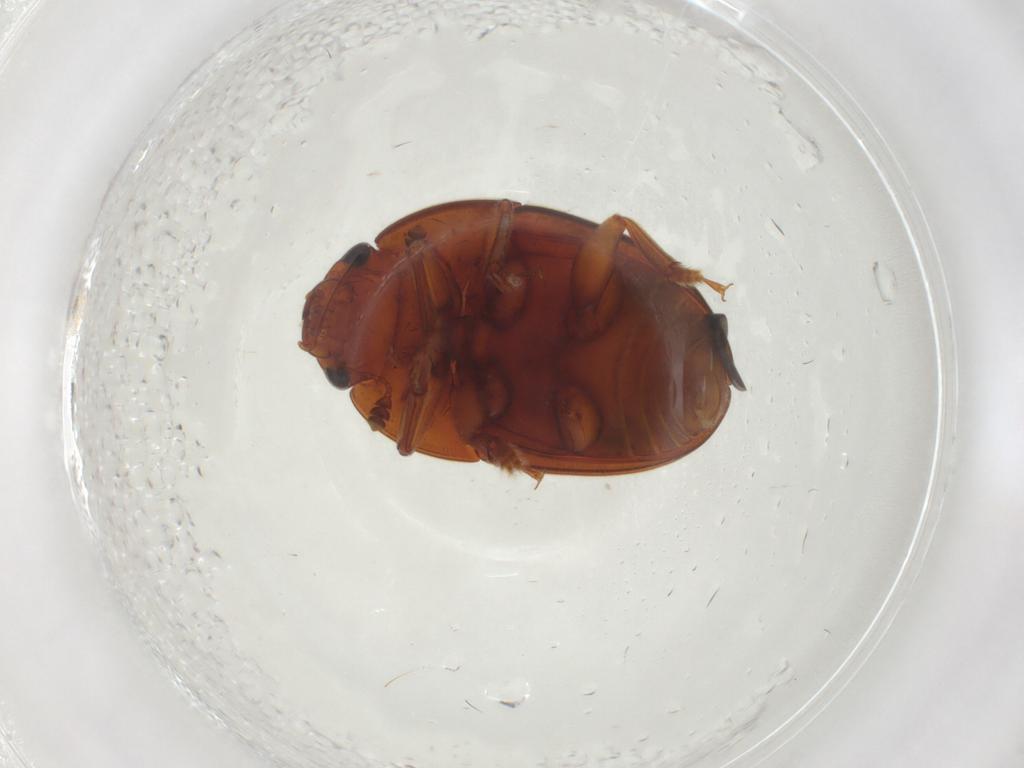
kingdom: Animalia
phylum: Arthropoda
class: Insecta
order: Coleoptera
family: Nitidulidae
